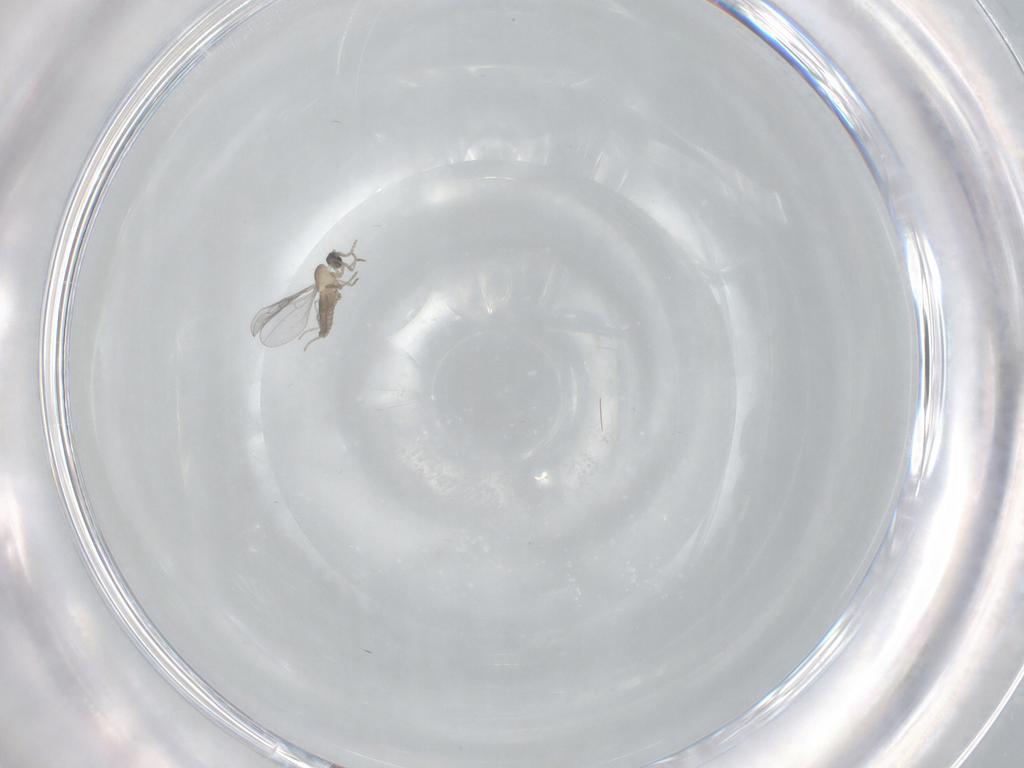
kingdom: Animalia
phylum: Arthropoda
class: Insecta
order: Diptera
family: Cecidomyiidae
